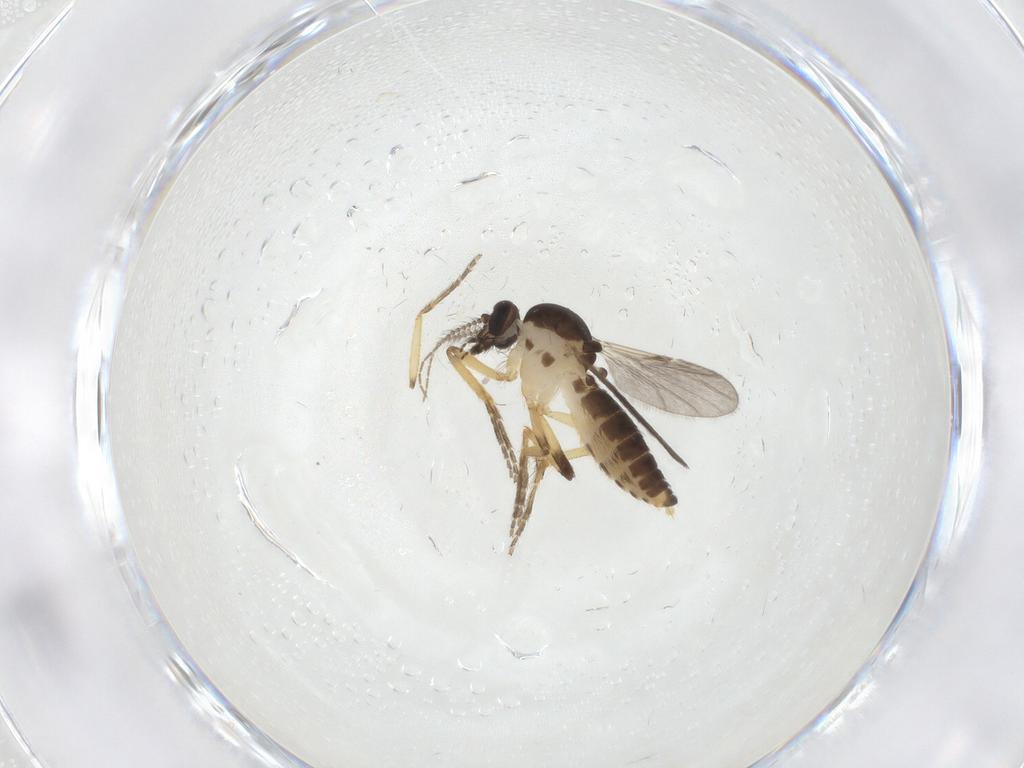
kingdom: Animalia
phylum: Arthropoda
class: Insecta
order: Diptera
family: Ceratopogonidae
